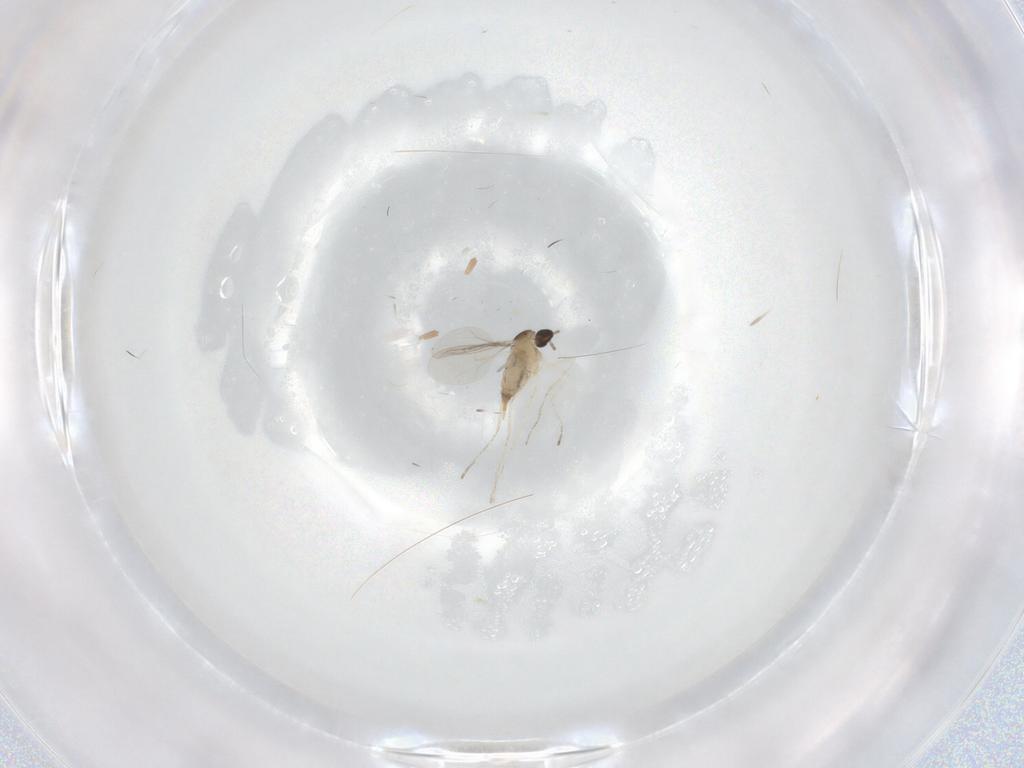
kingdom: Animalia
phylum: Arthropoda
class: Insecta
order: Diptera
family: Cecidomyiidae
